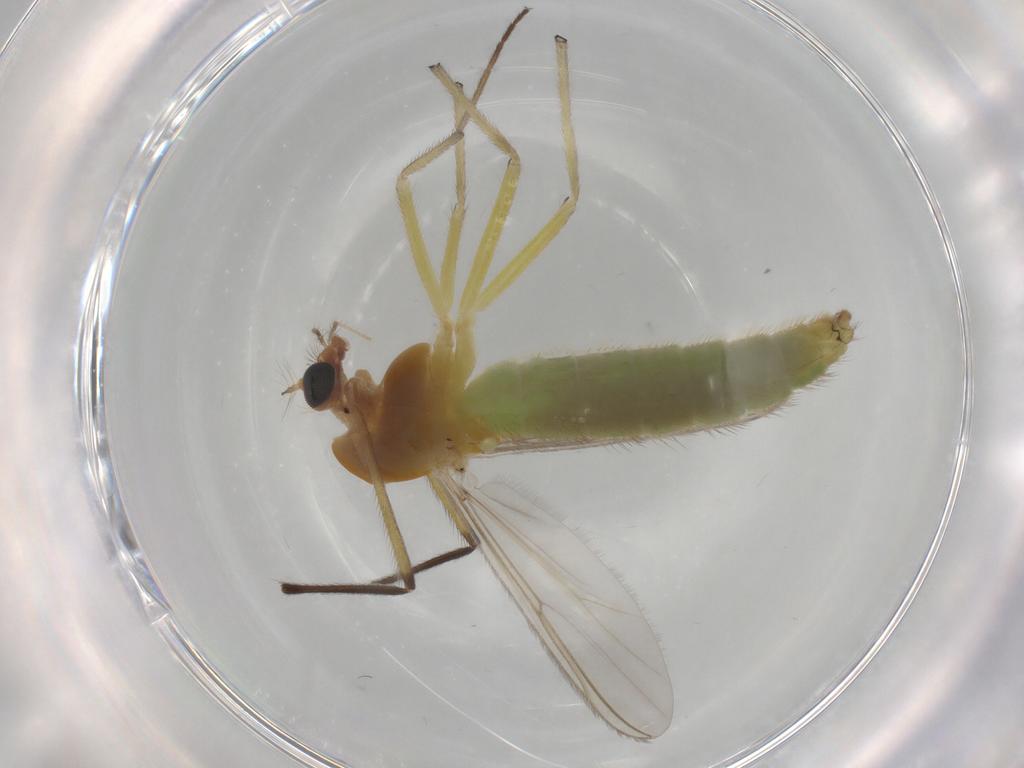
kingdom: Animalia
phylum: Arthropoda
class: Insecta
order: Diptera
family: Chironomidae
